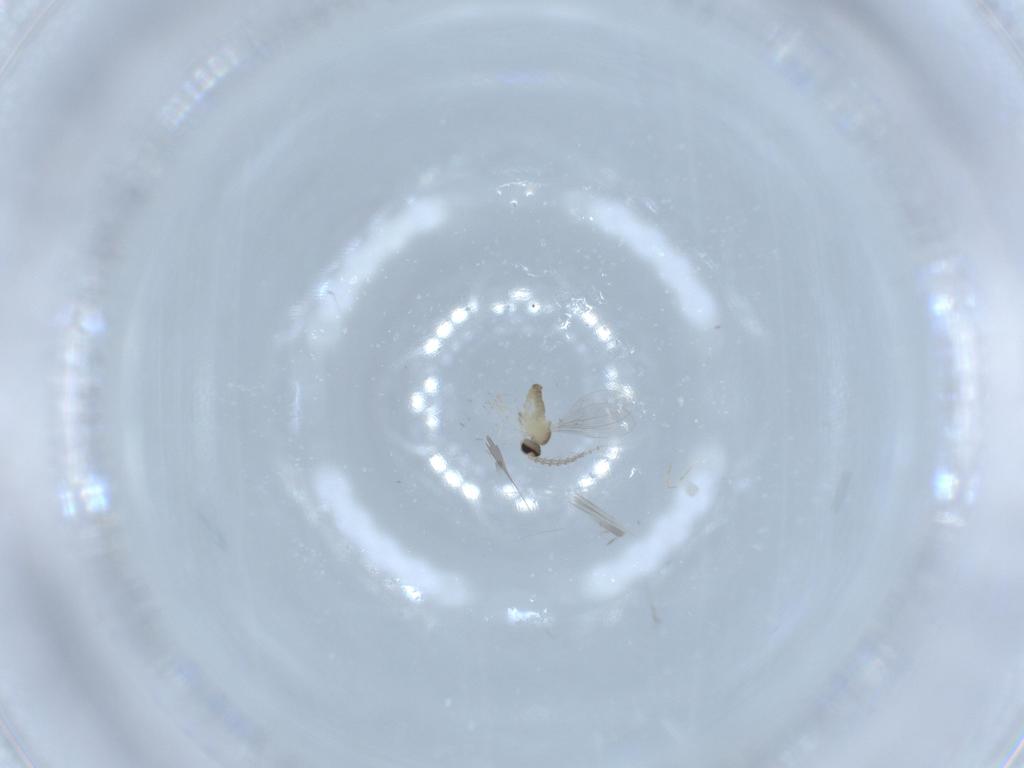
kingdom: Animalia
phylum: Arthropoda
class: Insecta
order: Diptera
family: Cecidomyiidae
